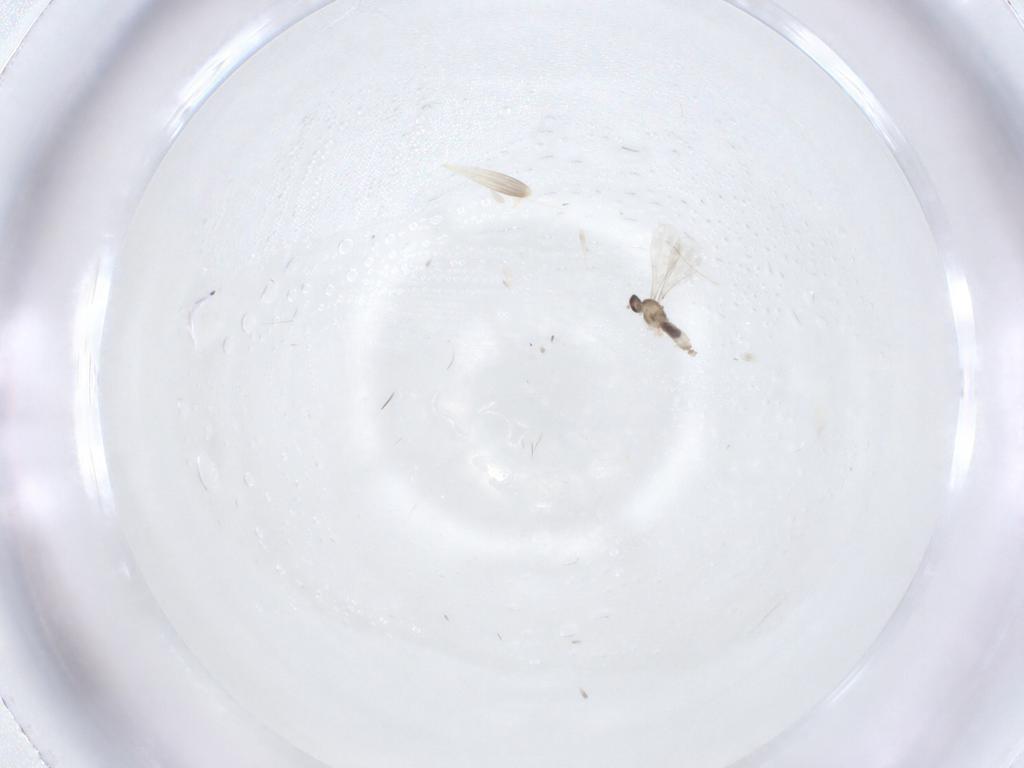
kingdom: Animalia
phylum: Arthropoda
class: Insecta
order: Diptera
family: Cecidomyiidae
